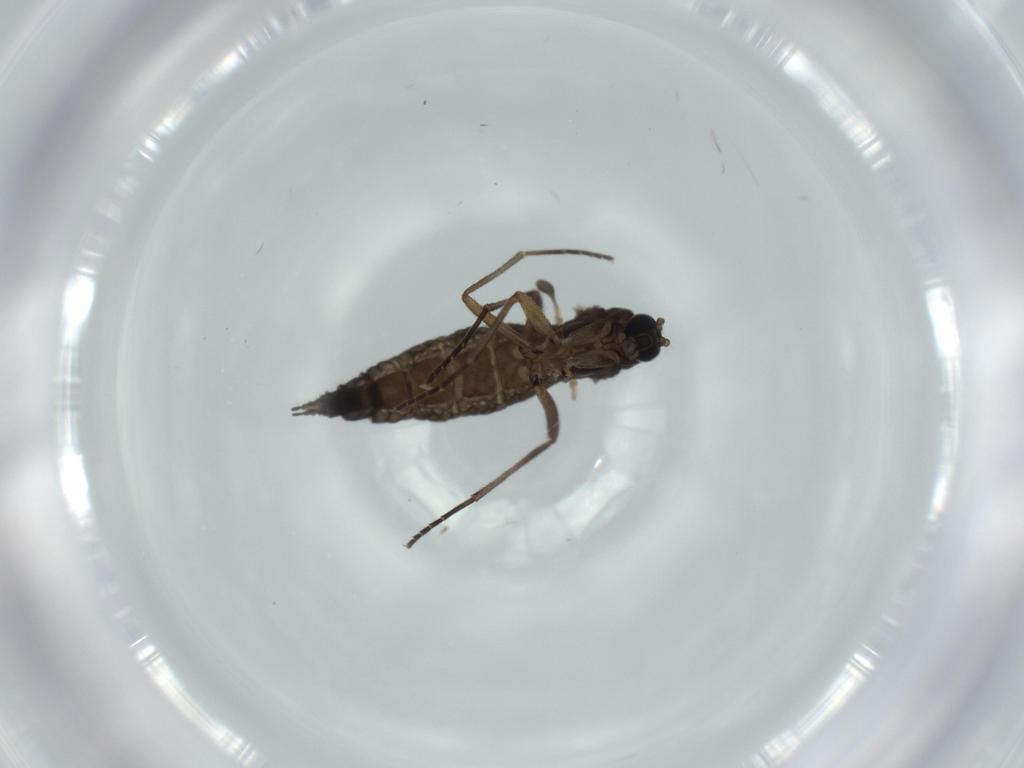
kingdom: Animalia
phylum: Arthropoda
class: Insecta
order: Diptera
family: Sciaridae
